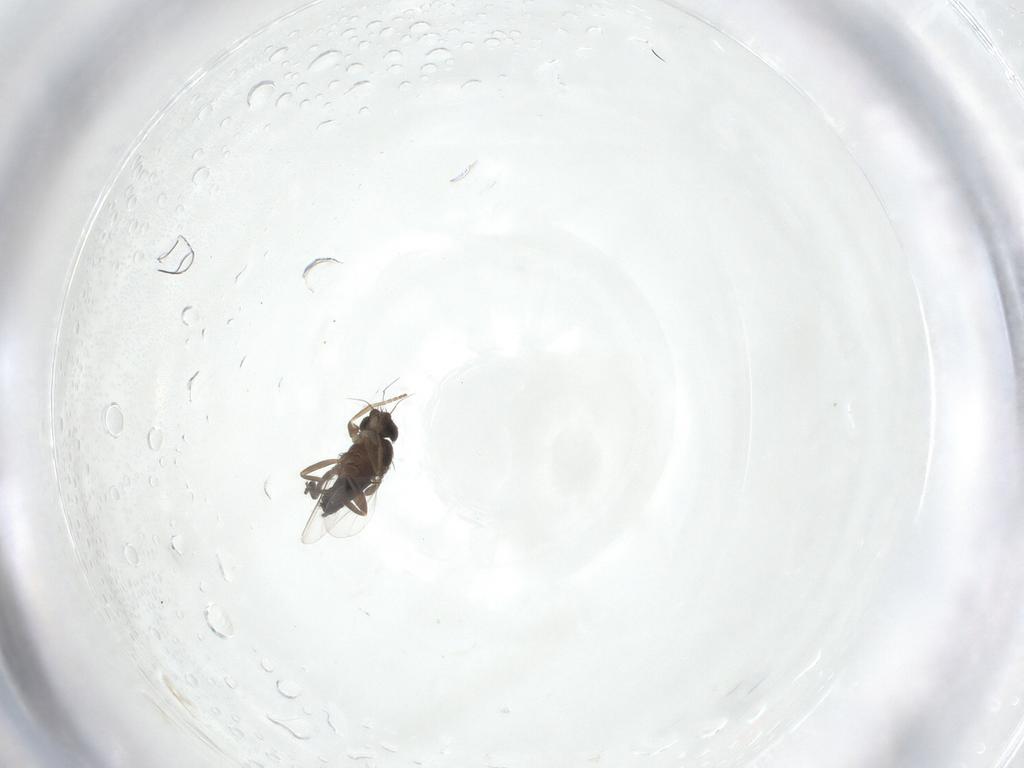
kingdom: Animalia
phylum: Arthropoda
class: Insecta
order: Diptera
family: Phoridae
